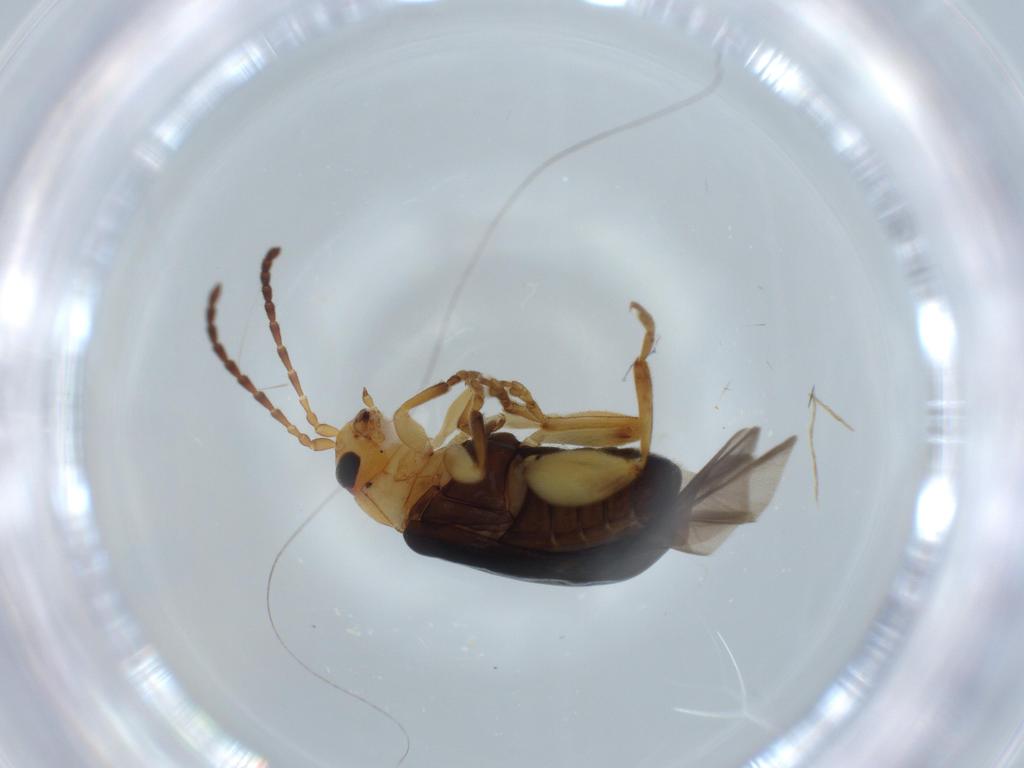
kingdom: Animalia
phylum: Arthropoda
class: Insecta
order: Coleoptera
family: Chrysomelidae
